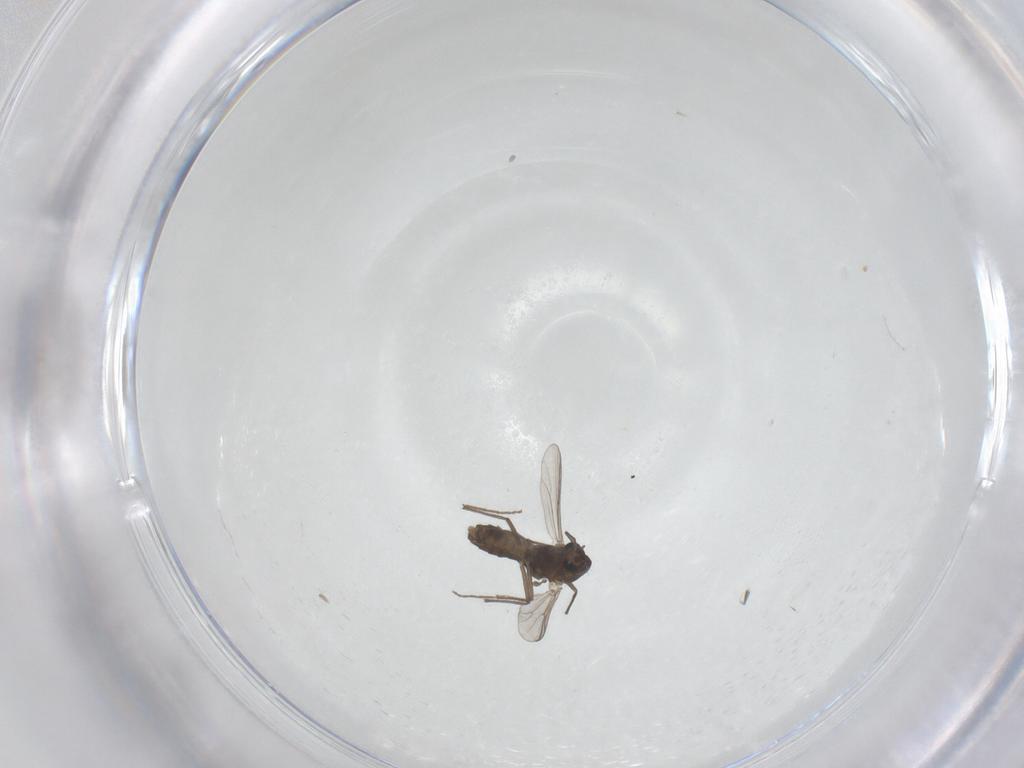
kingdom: Animalia
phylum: Arthropoda
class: Insecta
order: Diptera
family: Chironomidae
